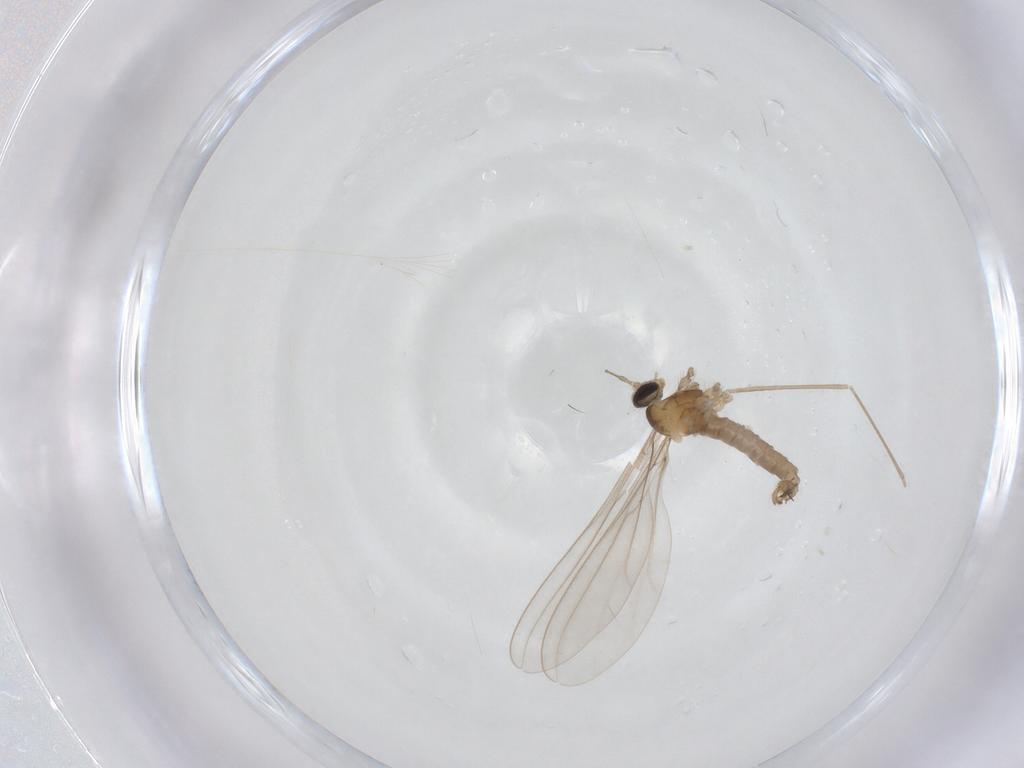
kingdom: Animalia
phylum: Arthropoda
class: Insecta
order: Diptera
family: Cecidomyiidae
